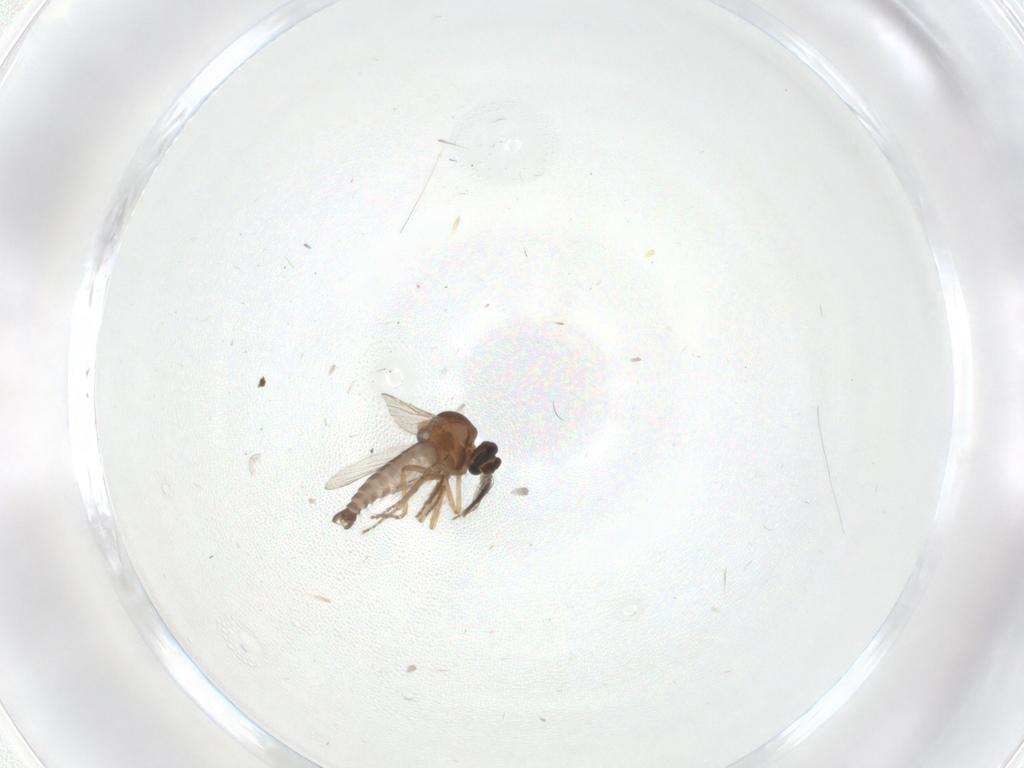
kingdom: Animalia
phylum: Arthropoda
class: Insecta
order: Diptera
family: Ceratopogonidae
